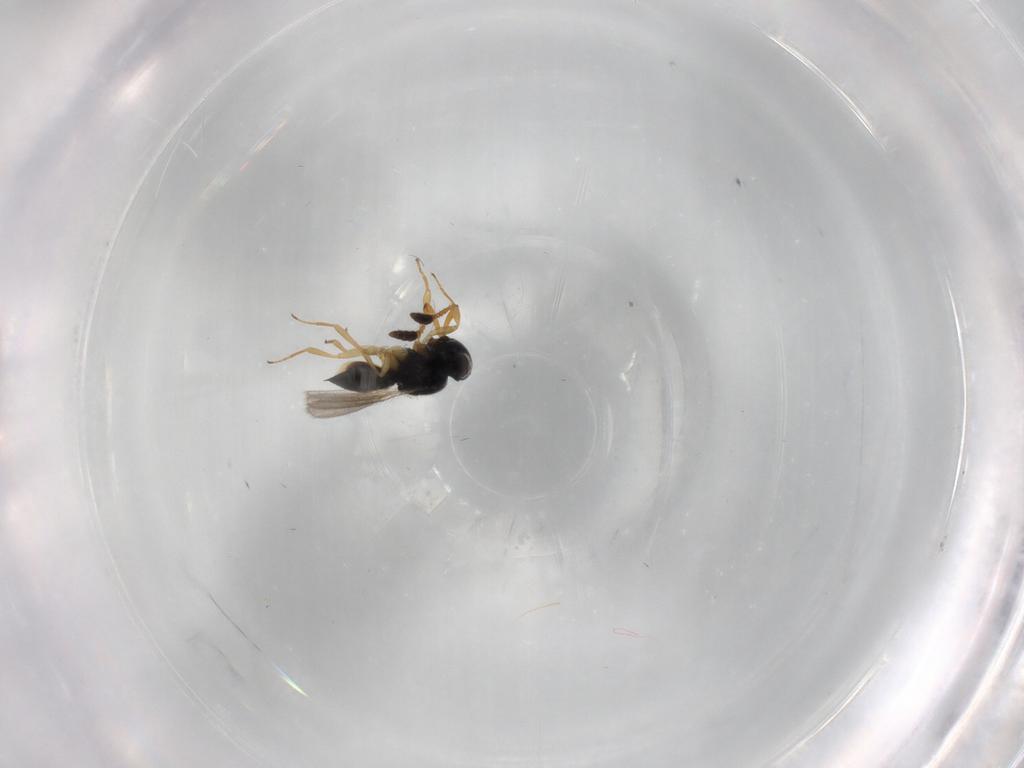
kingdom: Animalia
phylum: Arthropoda
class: Insecta
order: Hymenoptera
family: Scelionidae
